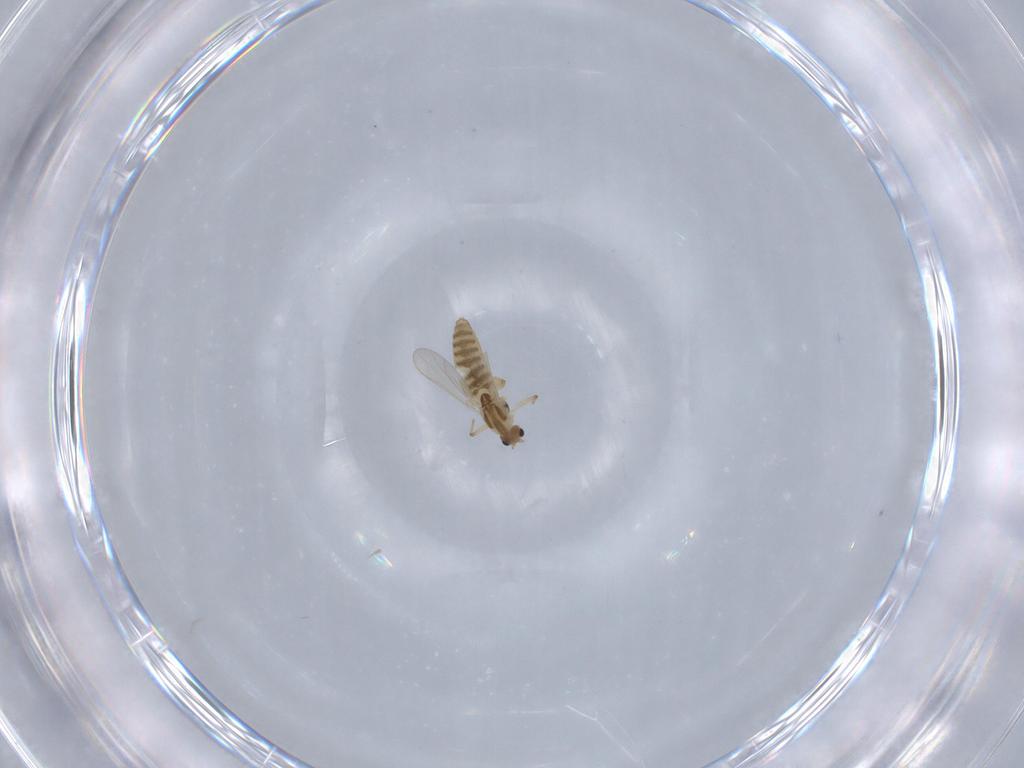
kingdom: Animalia
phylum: Arthropoda
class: Insecta
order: Diptera
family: Chironomidae
